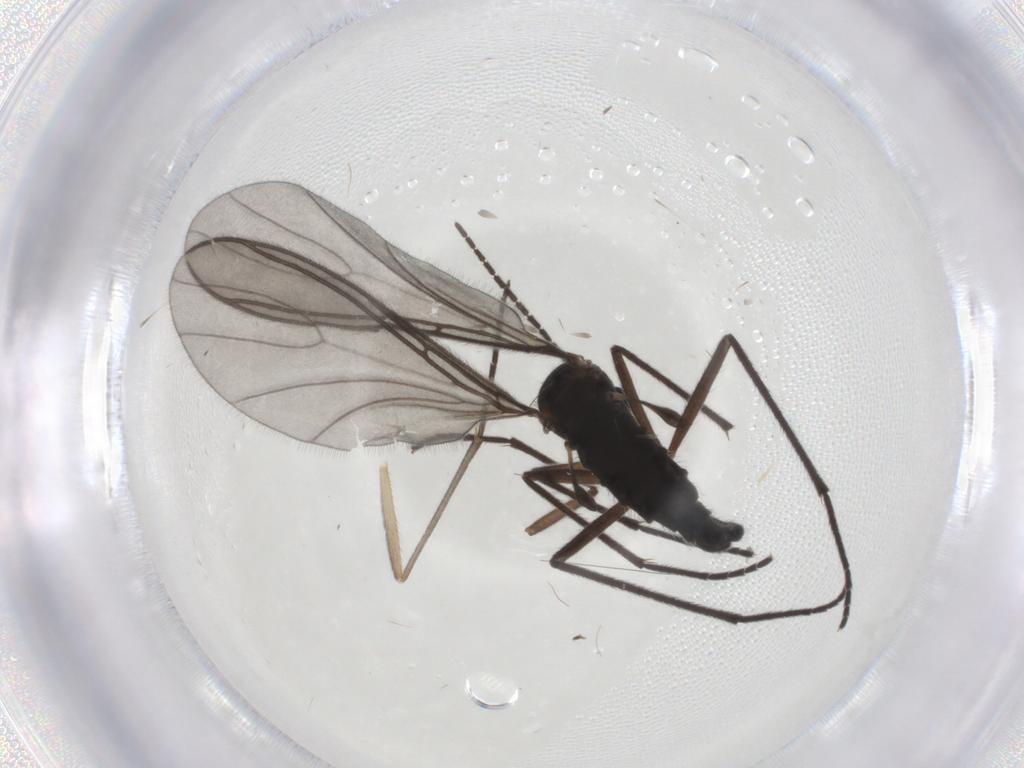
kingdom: Animalia
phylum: Arthropoda
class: Insecta
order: Diptera
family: Sciaridae
